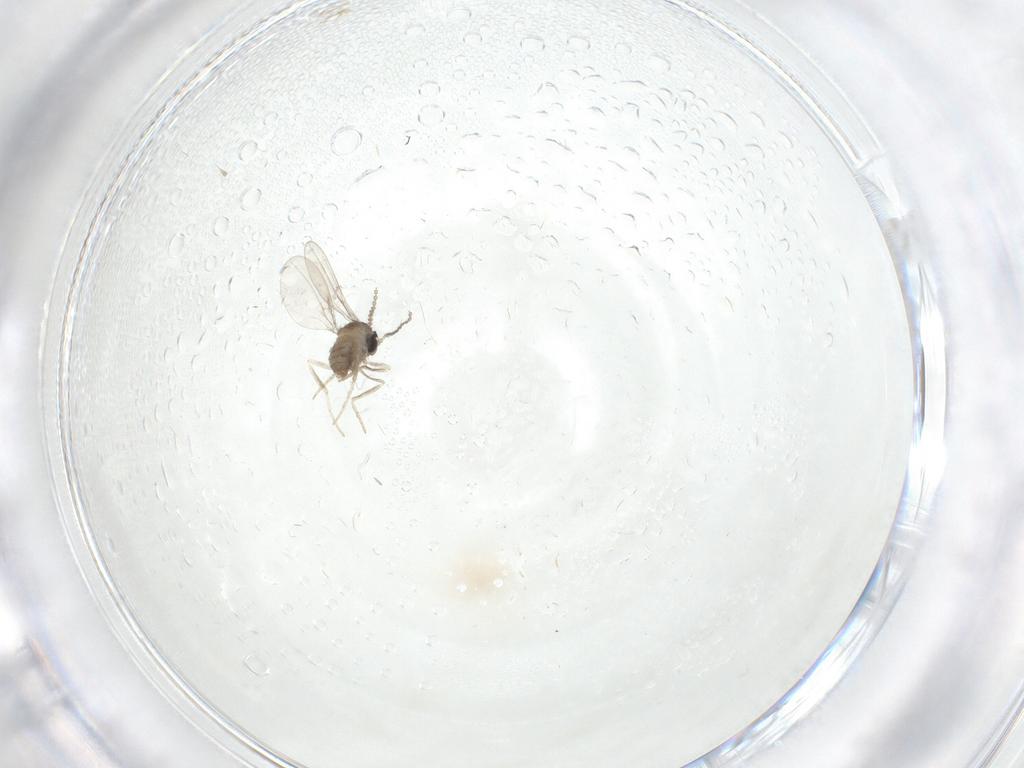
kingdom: Animalia
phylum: Arthropoda
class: Insecta
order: Diptera
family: Cecidomyiidae
